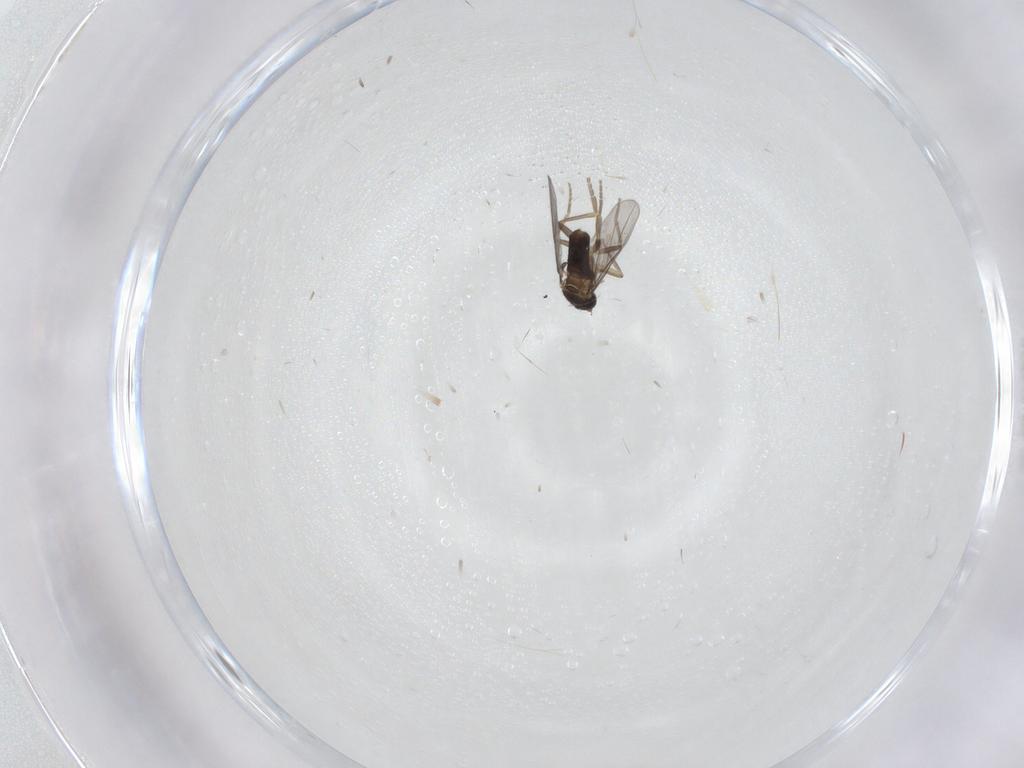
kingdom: Animalia
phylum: Arthropoda
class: Insecta
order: Diptera
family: Phoridae
